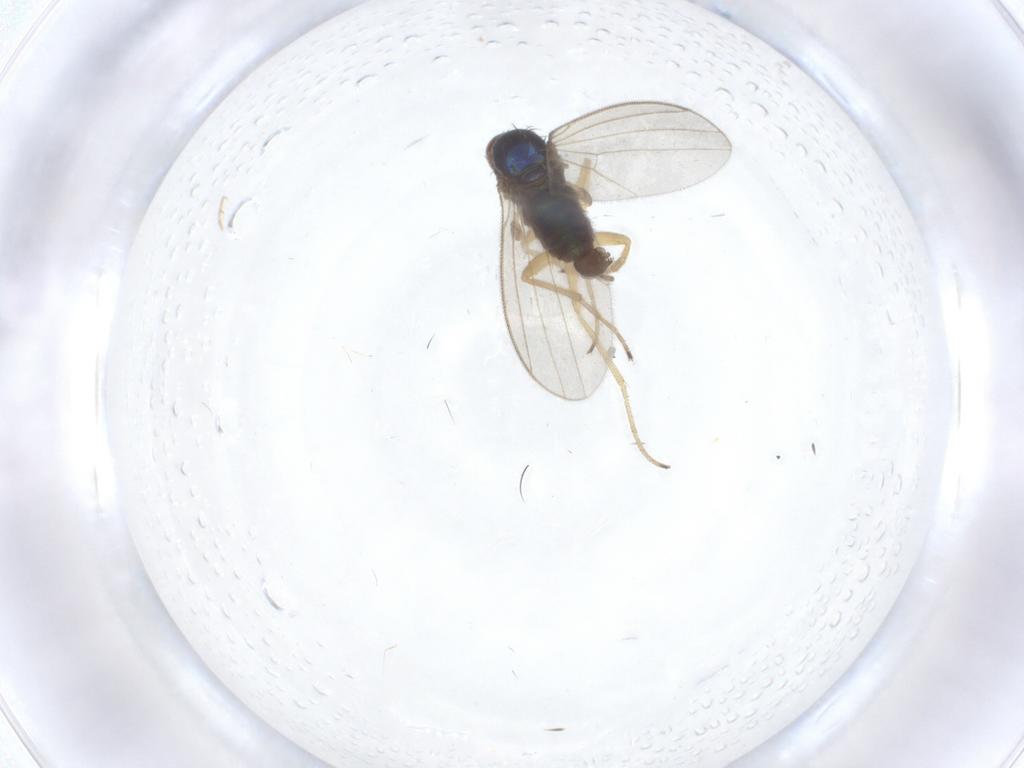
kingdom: Animalia
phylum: Arthropoda
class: Insecta
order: Diptera
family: Dolichopodidae
